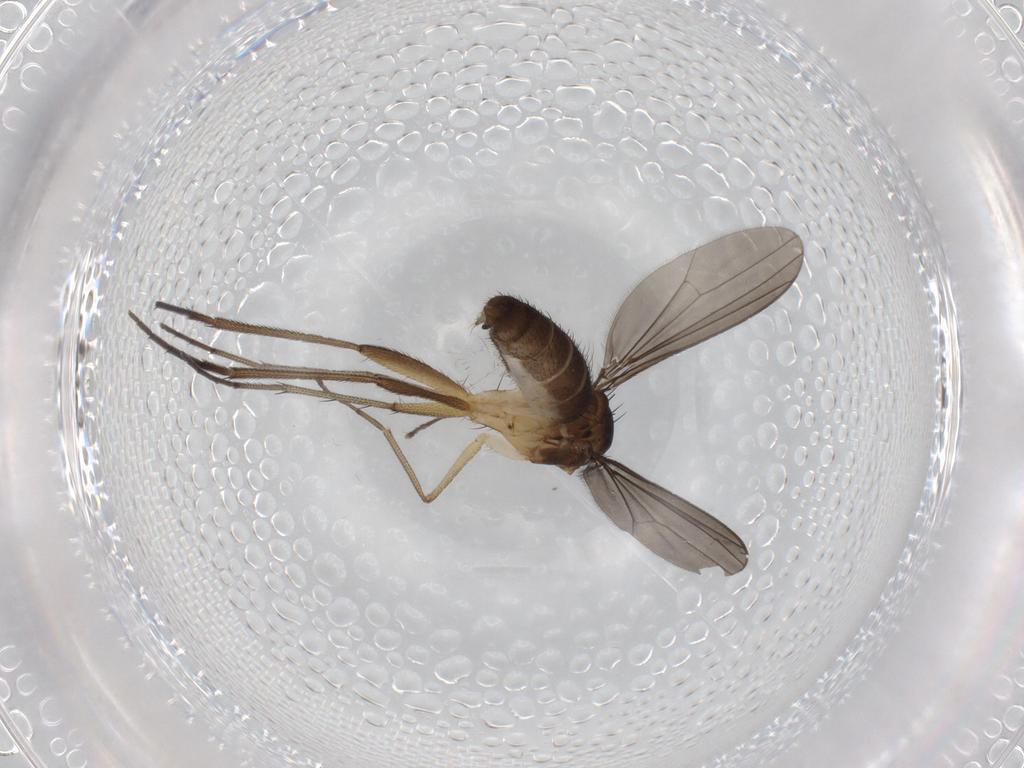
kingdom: Animalia
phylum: Arthropoda
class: Insecta
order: Diptera
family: Dolichopodidae
